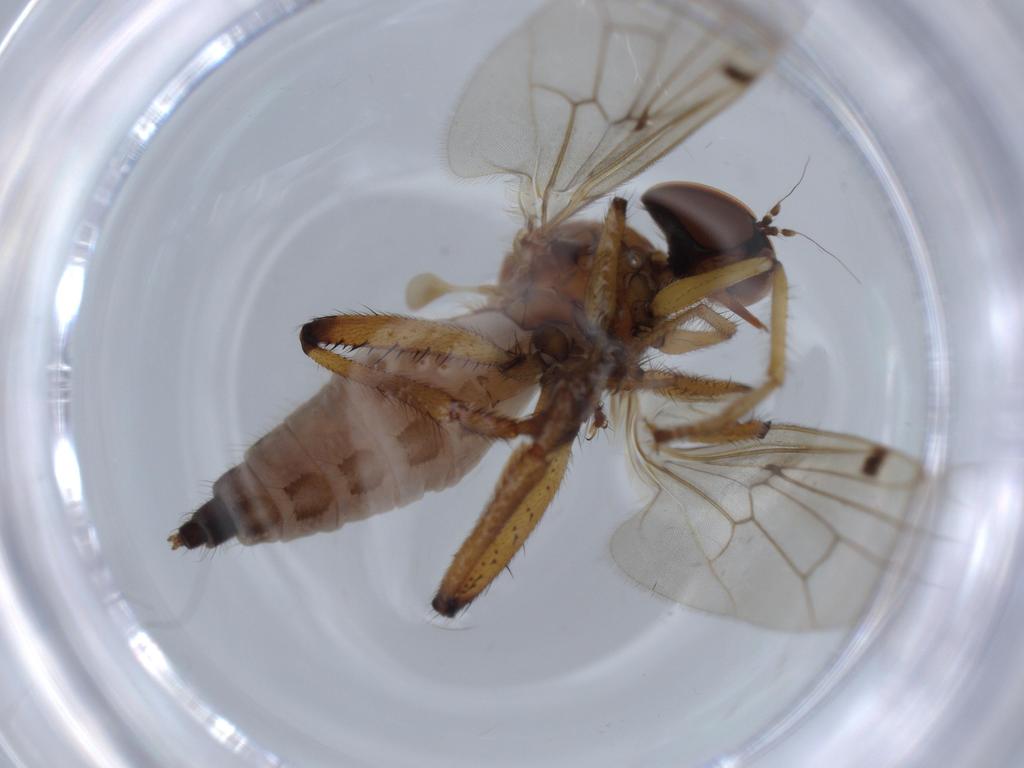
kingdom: Animalia
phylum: Arthropoda
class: Insecta
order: Diptera
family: Hybotidae
